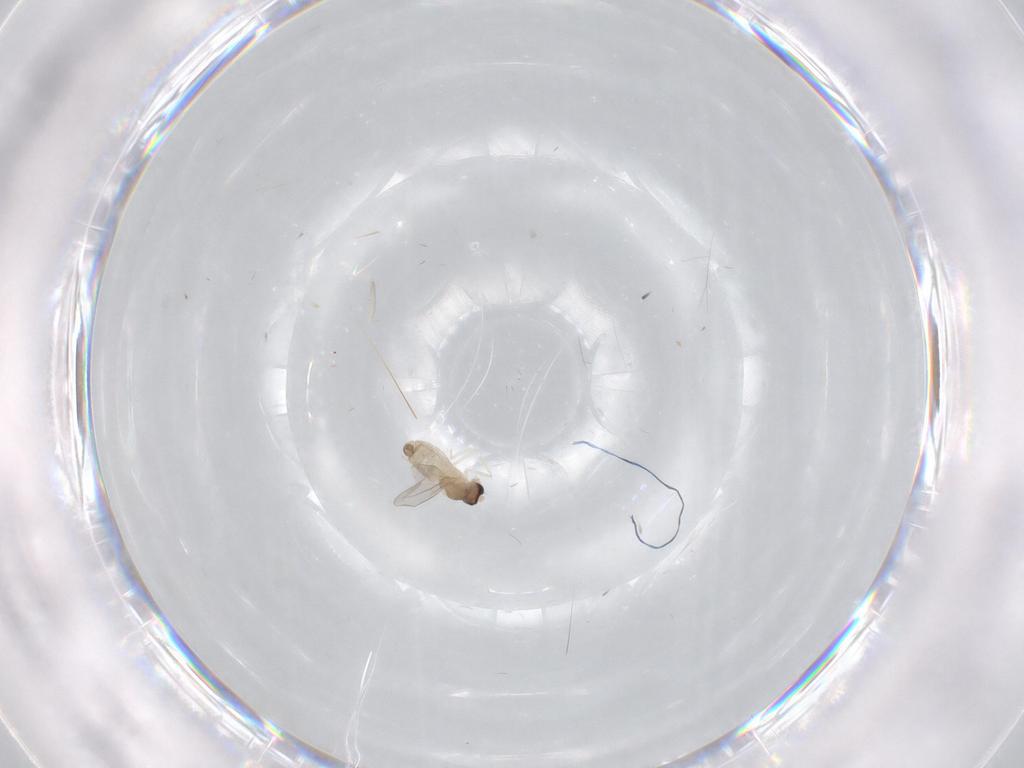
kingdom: Animalia
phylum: Arthropoda
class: Insecta
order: Diptera
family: Cecidomyiidae
